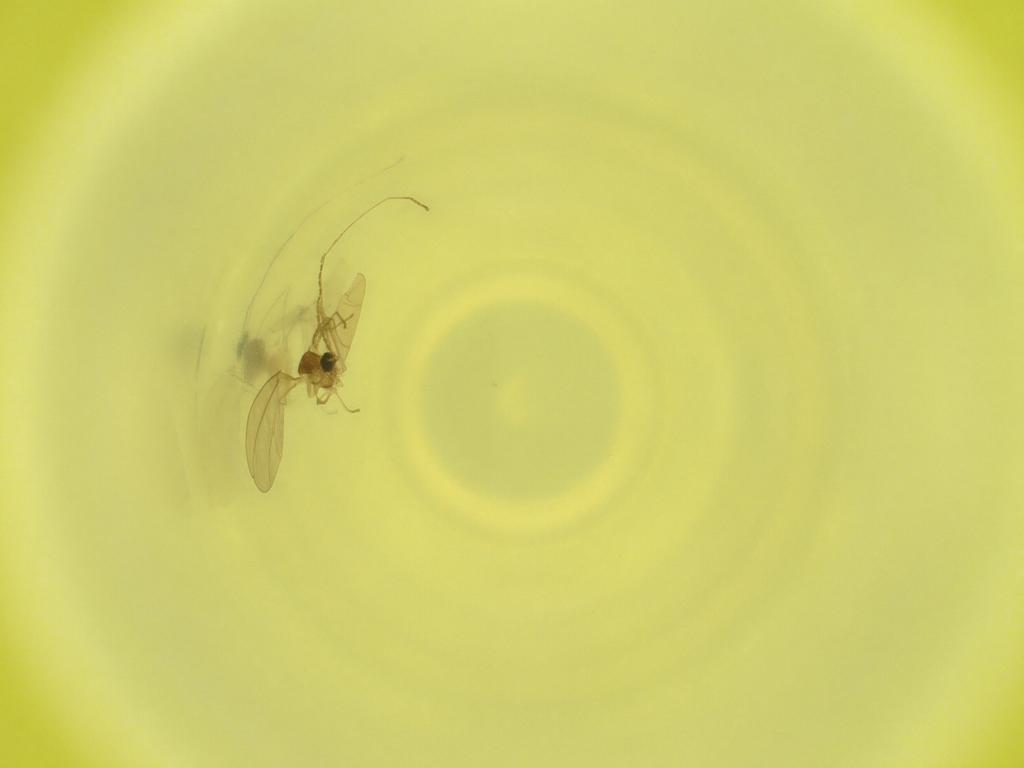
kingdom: Animalia
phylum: Arthropoda
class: Insecta
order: Diptera
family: Cecidomyiidae
